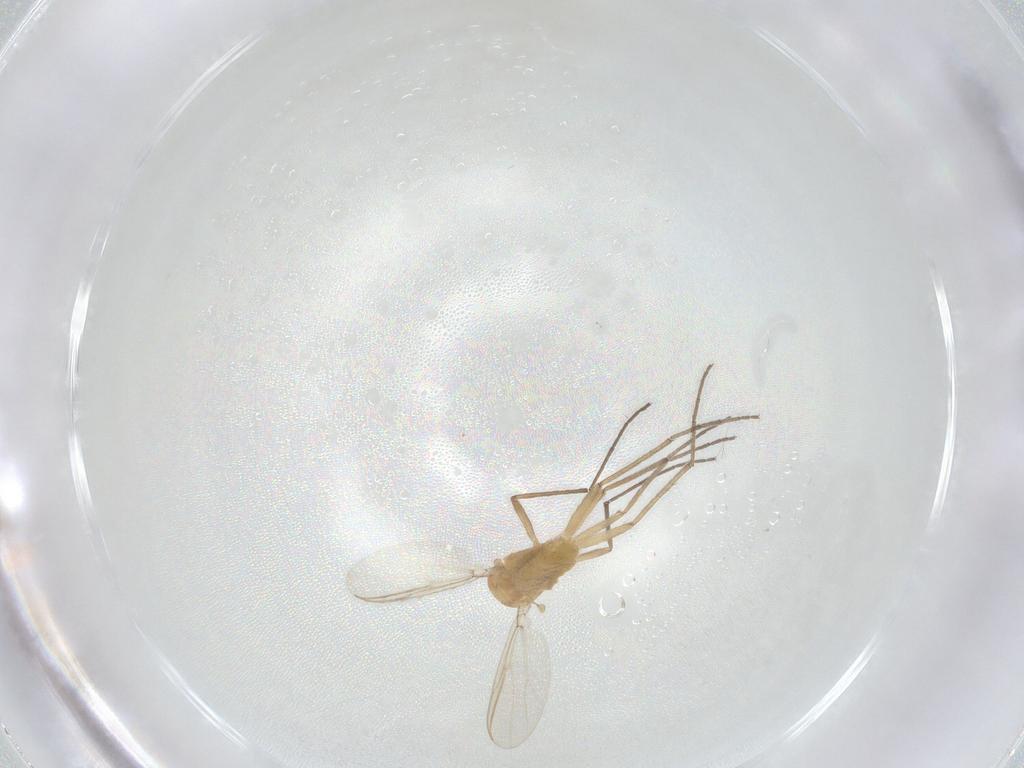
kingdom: Animalia
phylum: Arthropoda
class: Insecta
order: Diptera
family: Chironomidae
